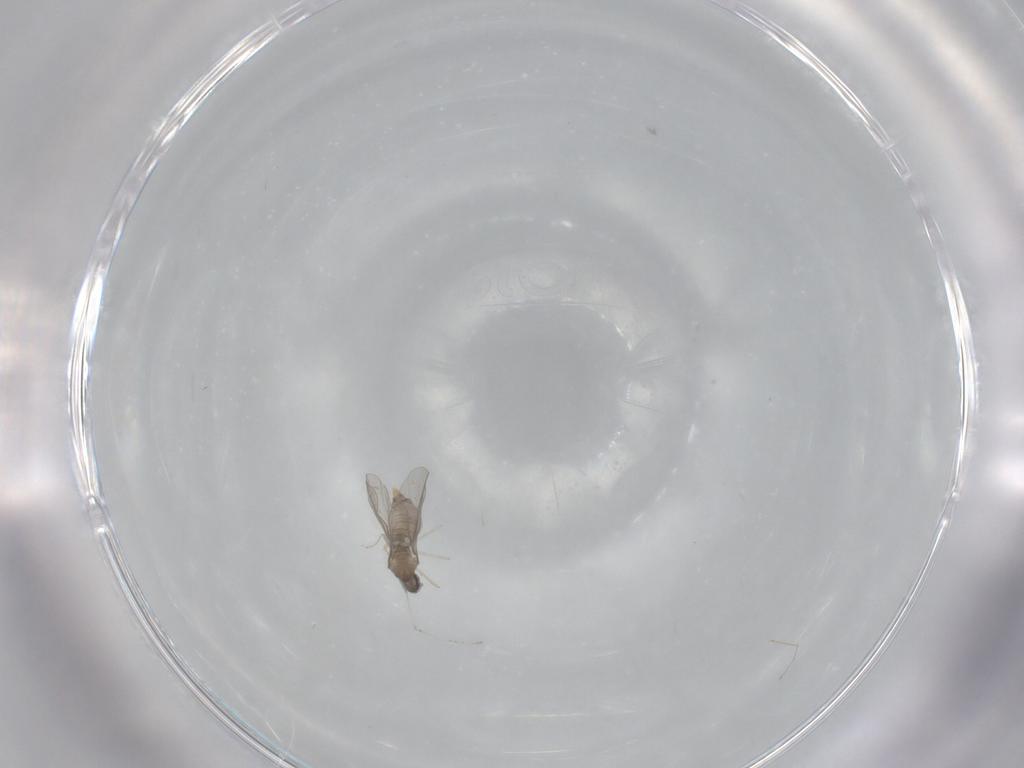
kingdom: Animalia
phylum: Arthropoda
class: Insecta
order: Diptera
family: Cecidomyiidae
